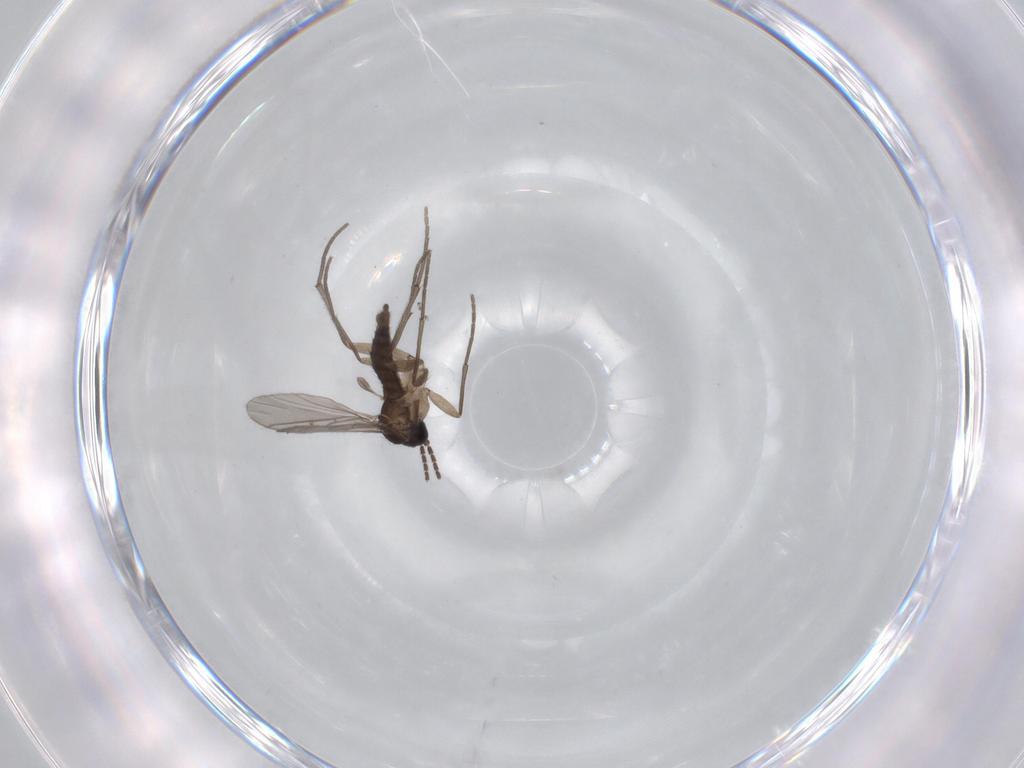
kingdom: Animalia
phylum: Arthropoda
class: Insecta
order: Diptera
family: Sciaridae
